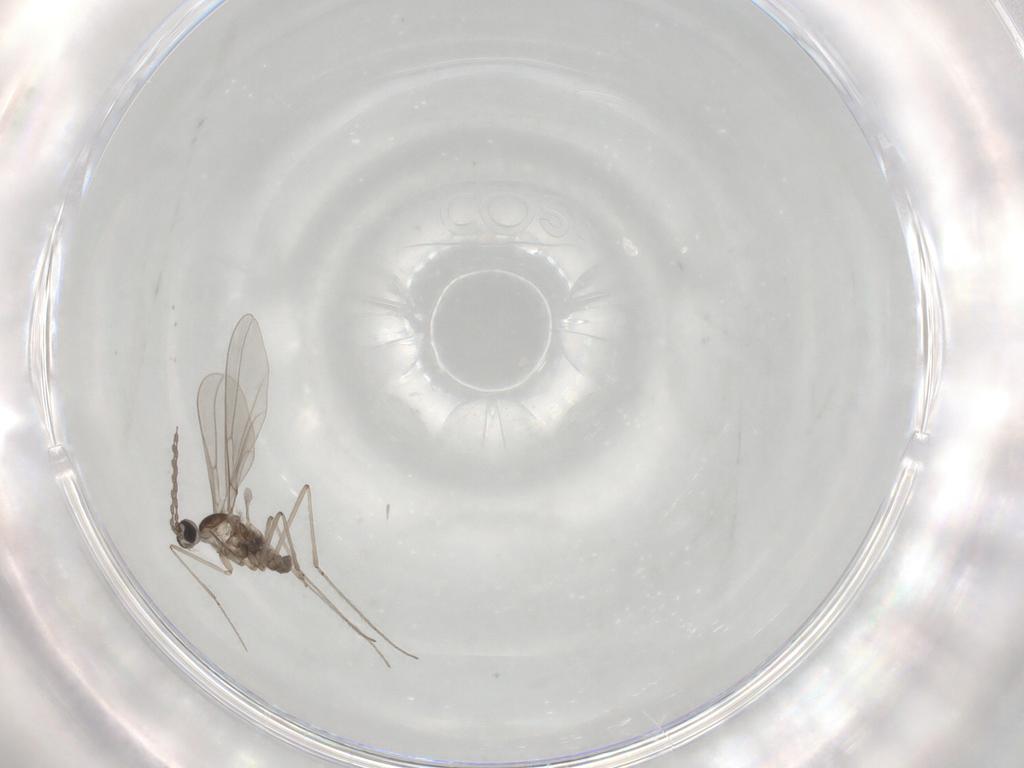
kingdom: Animalia
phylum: Arthropoda
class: Insecta
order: Diptera
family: Cecidomyiidae
